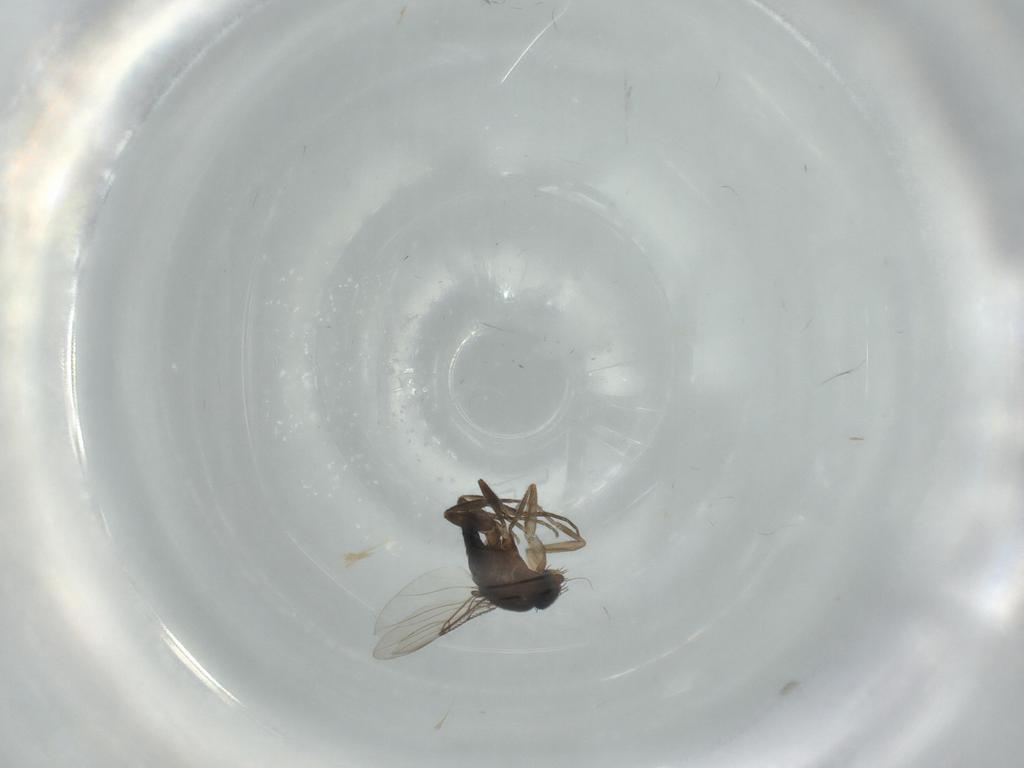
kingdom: Animalia
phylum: Arthropoda
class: Insecta
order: Diptera
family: Phoridae
